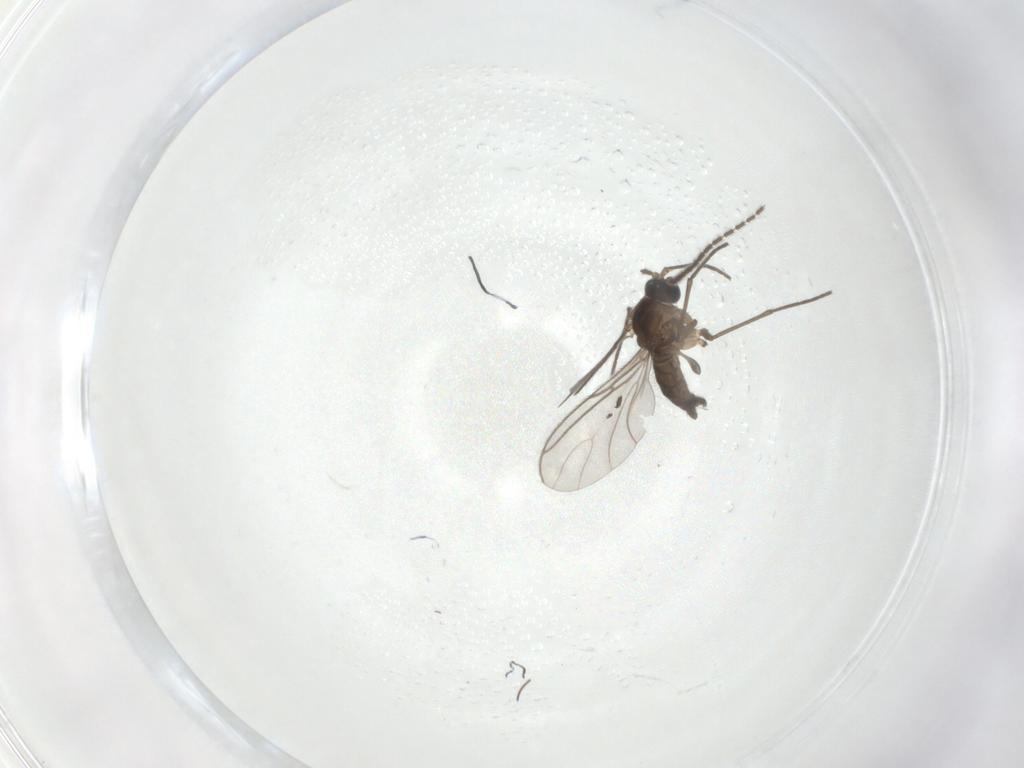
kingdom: Animalia
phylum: Arthropoda
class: Insecta
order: Diptera
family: Sciaridae
